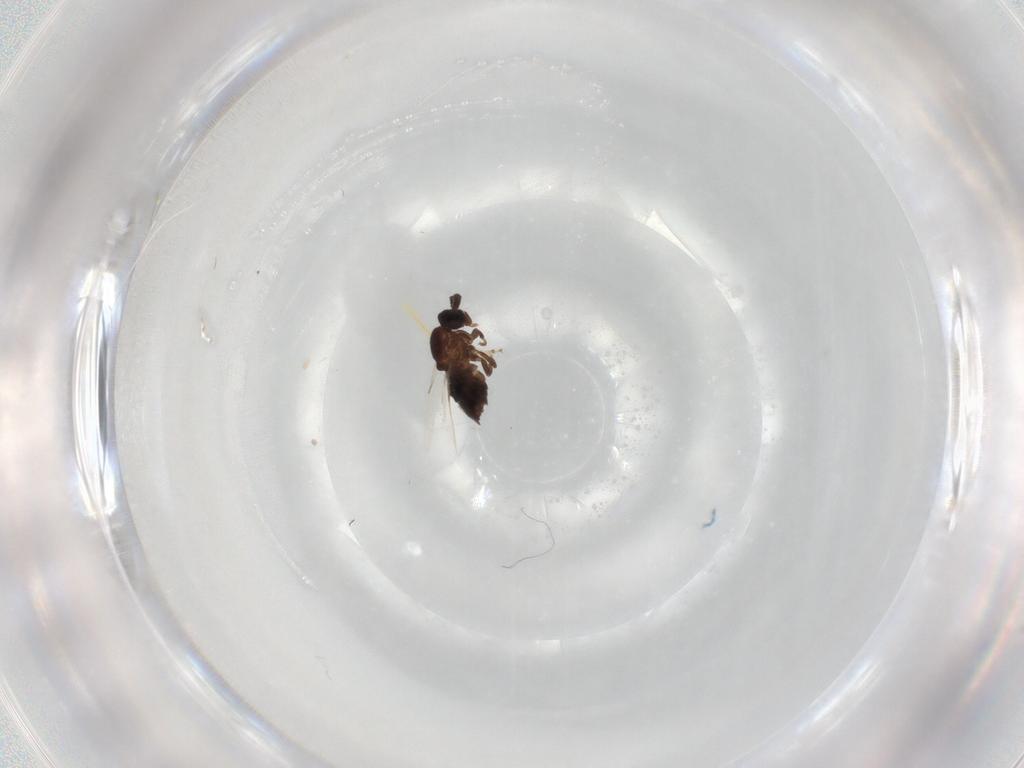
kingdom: Animalia
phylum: Arthropoda
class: Insecta
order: Diptera
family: Scatopsidae
